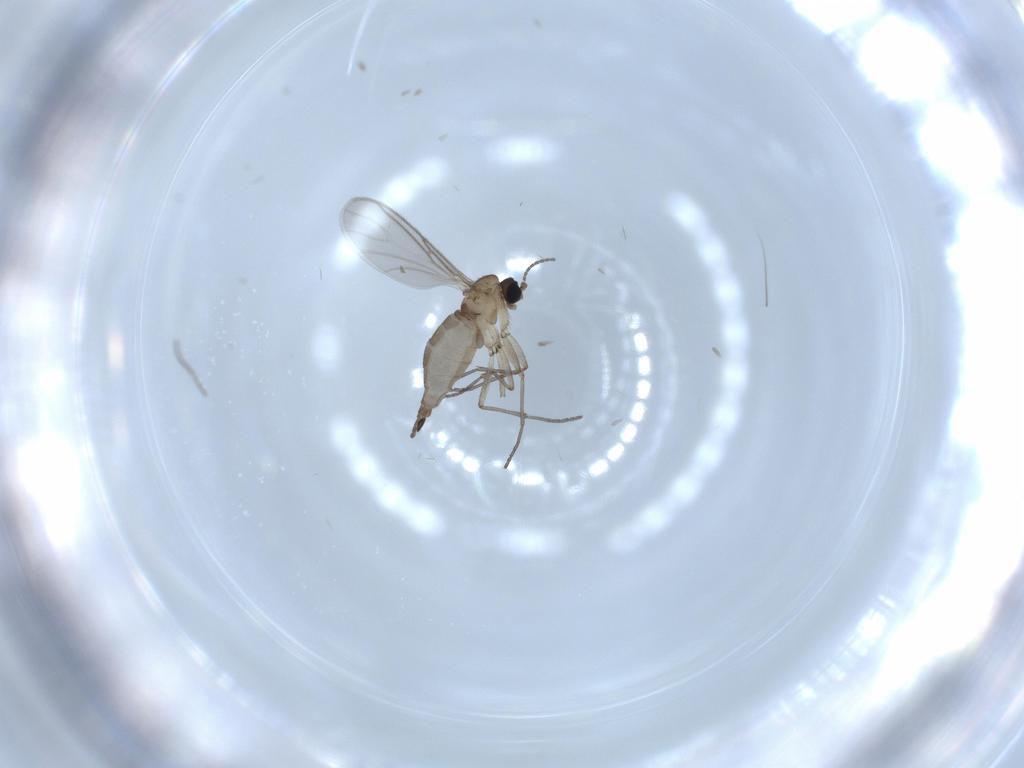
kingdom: Animalia
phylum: Arthropoda
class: Insecta
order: Diptera
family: Sciaridae
